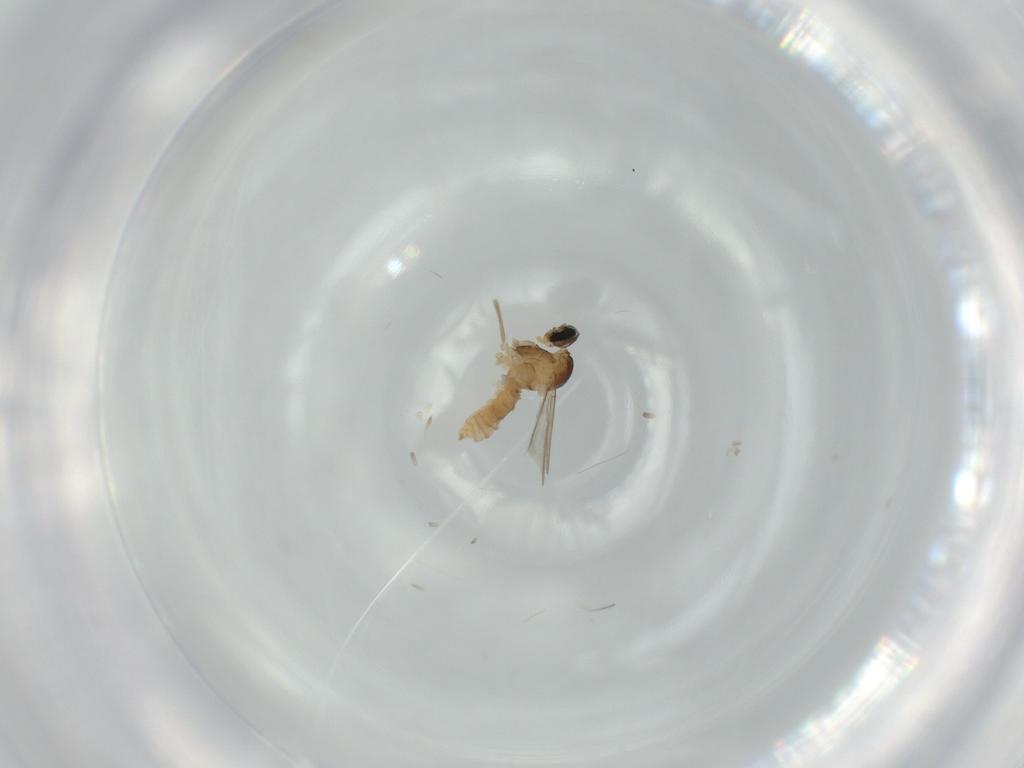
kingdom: Animalia
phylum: Arthropoda
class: Insecta
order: Diptera
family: Cecidomyiidae
